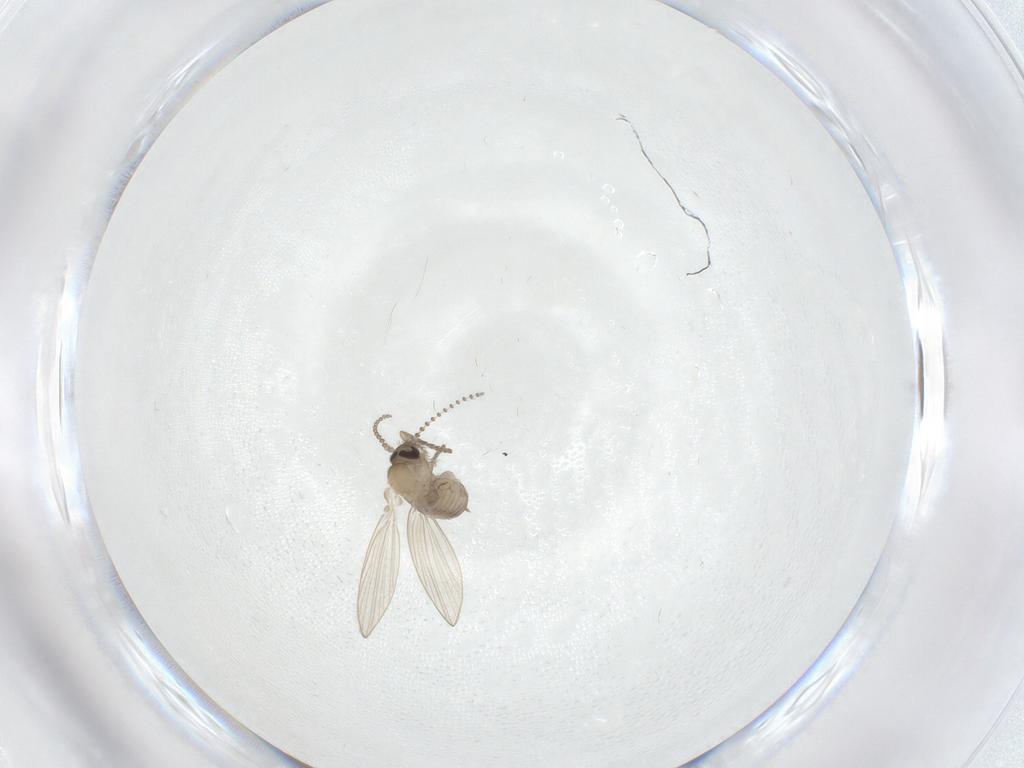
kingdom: Animalia
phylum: Arthropoda
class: Insecta
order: Diptera
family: Psychodidae
